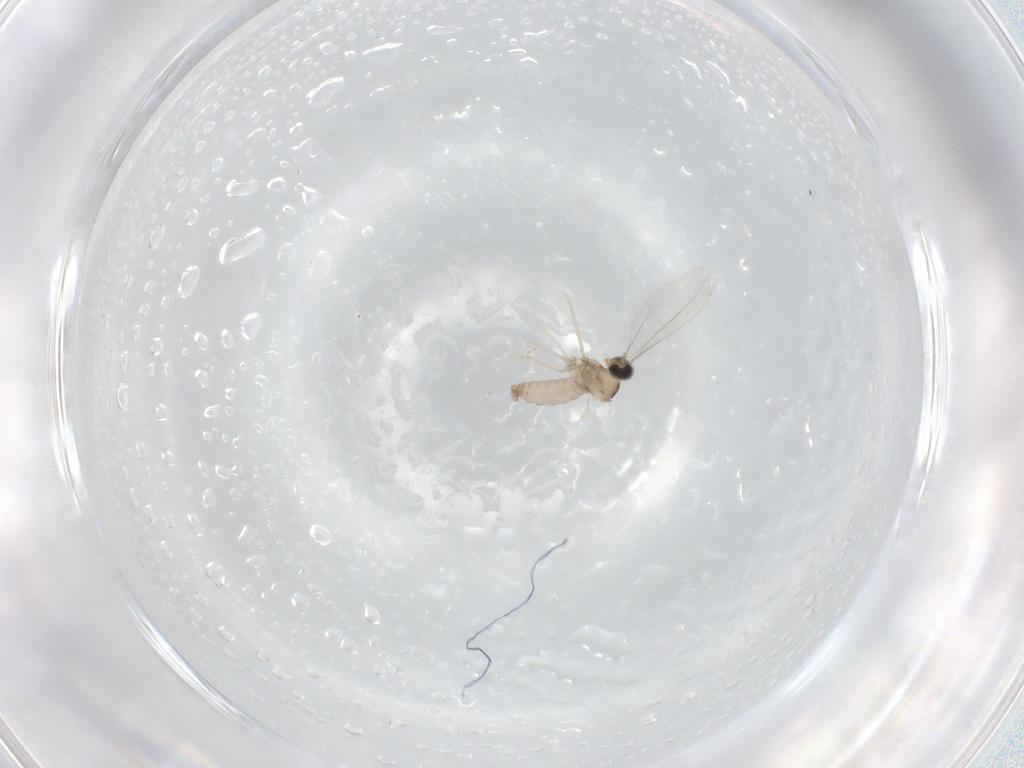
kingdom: Animalia
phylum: Arthropoda
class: Insecta
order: Diptera
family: Cecidomyiidae
